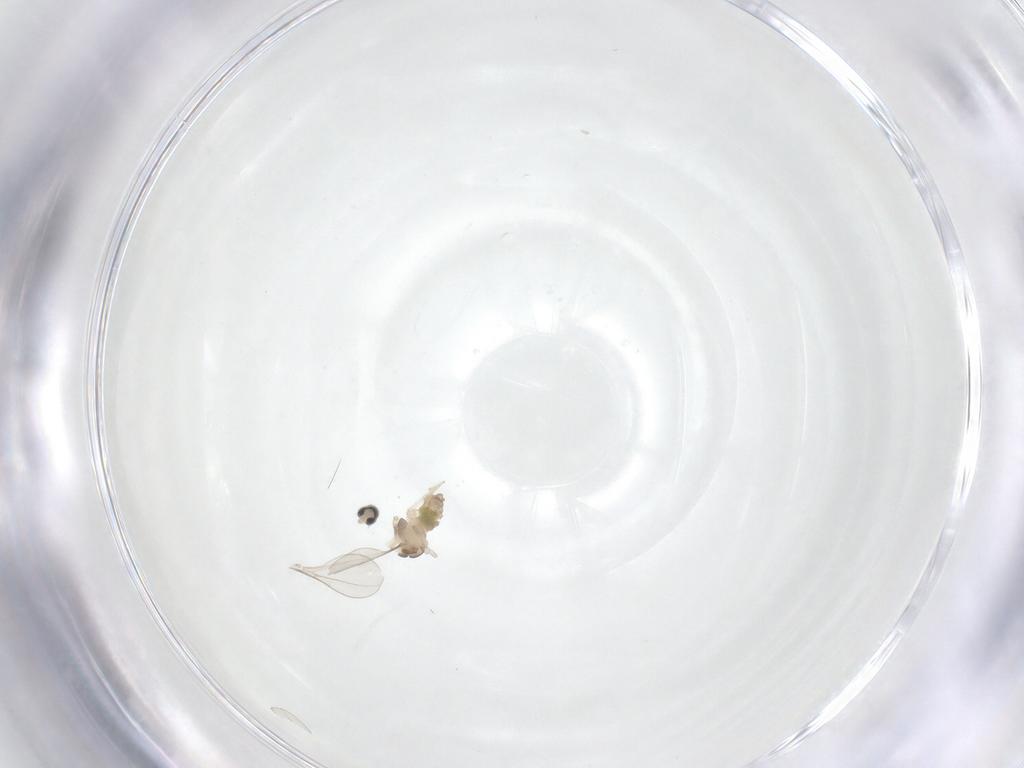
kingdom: Animalia
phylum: Arthropoda
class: Insecta
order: Diptera
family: Cecidomyiidae
